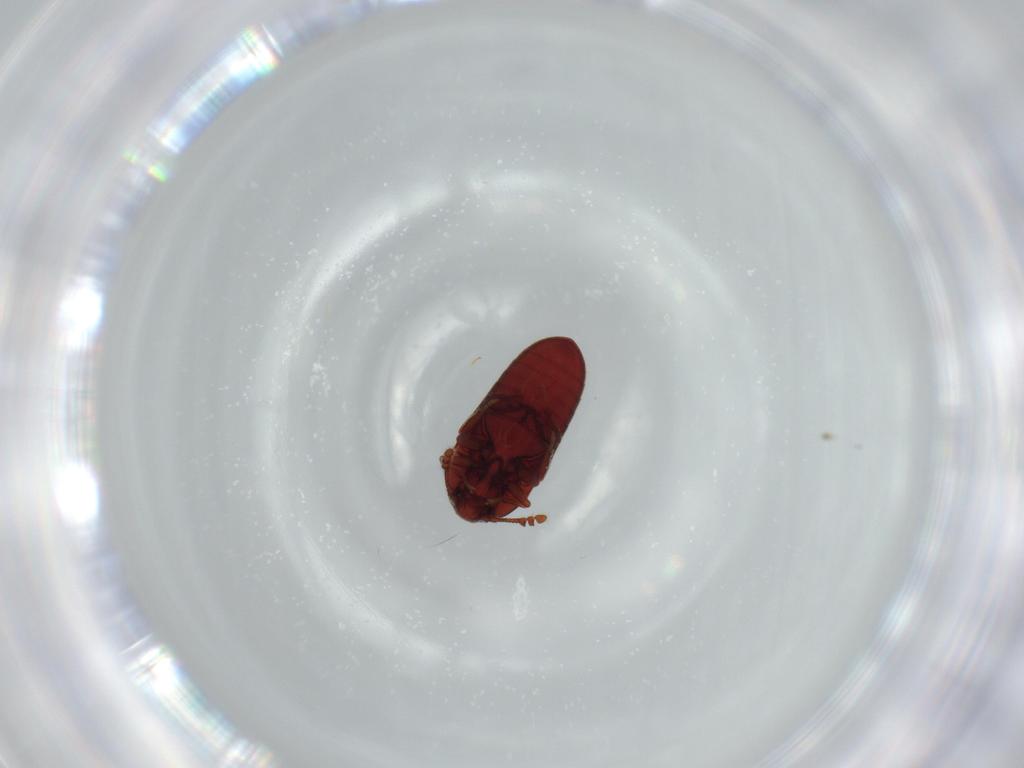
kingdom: Animalia
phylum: Arthropoda
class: Insecta
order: Coleoptera
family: Throscidae
